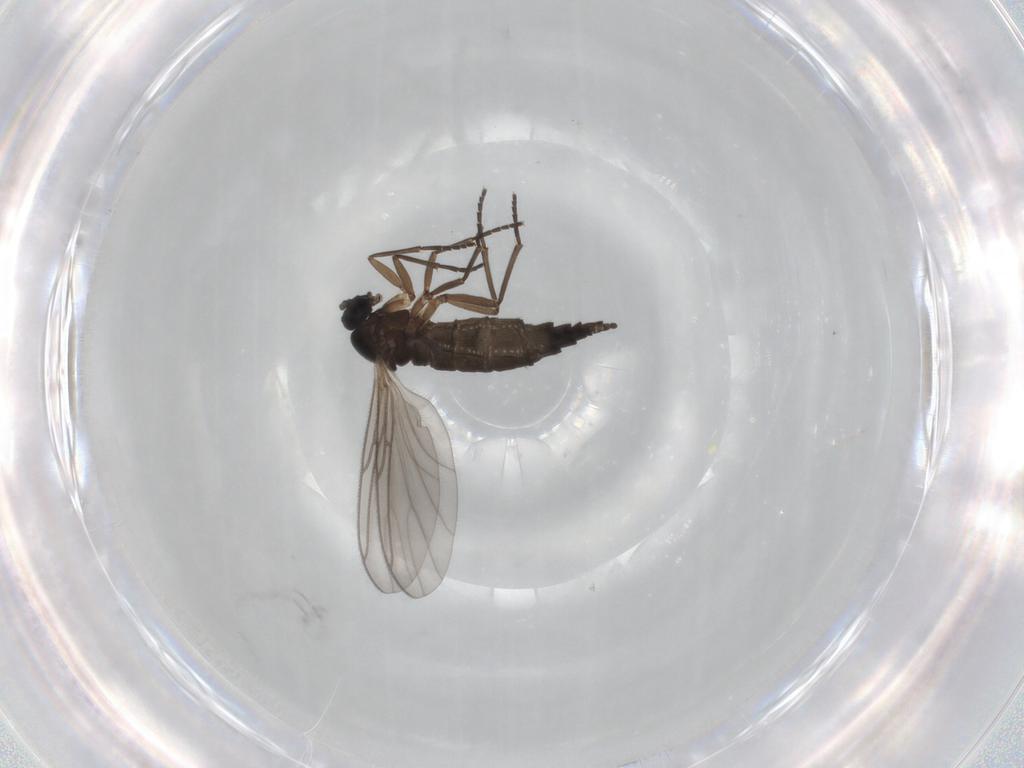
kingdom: Animalia
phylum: Arthropoda
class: Insecta
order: Diptera
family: Sciaridae
